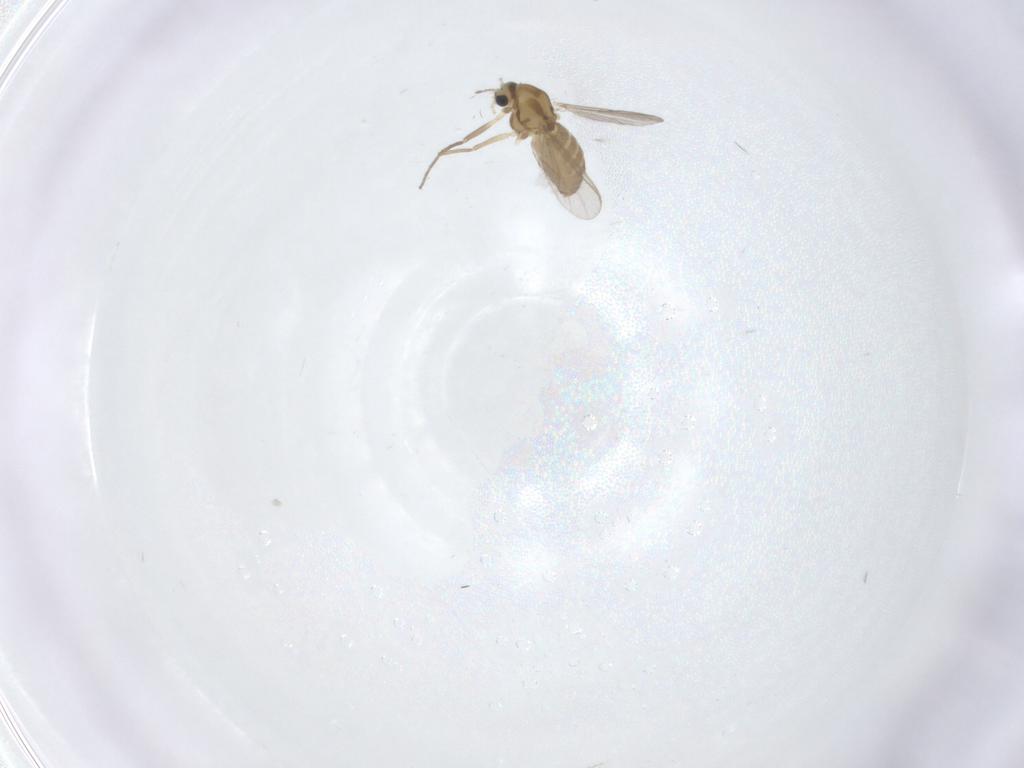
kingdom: Animalia
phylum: Arthropoda
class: Insecta
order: Diptera
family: Chironomidae
